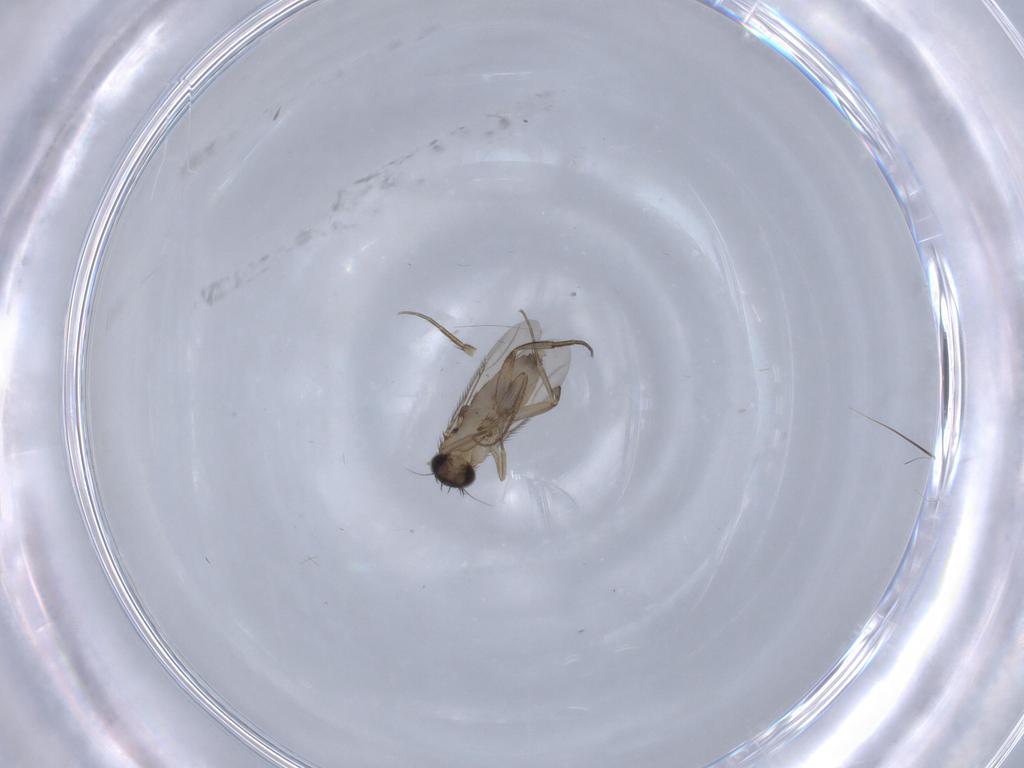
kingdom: Animalia
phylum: Arthropoda
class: Insecta
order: Diptera
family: Phoridae
